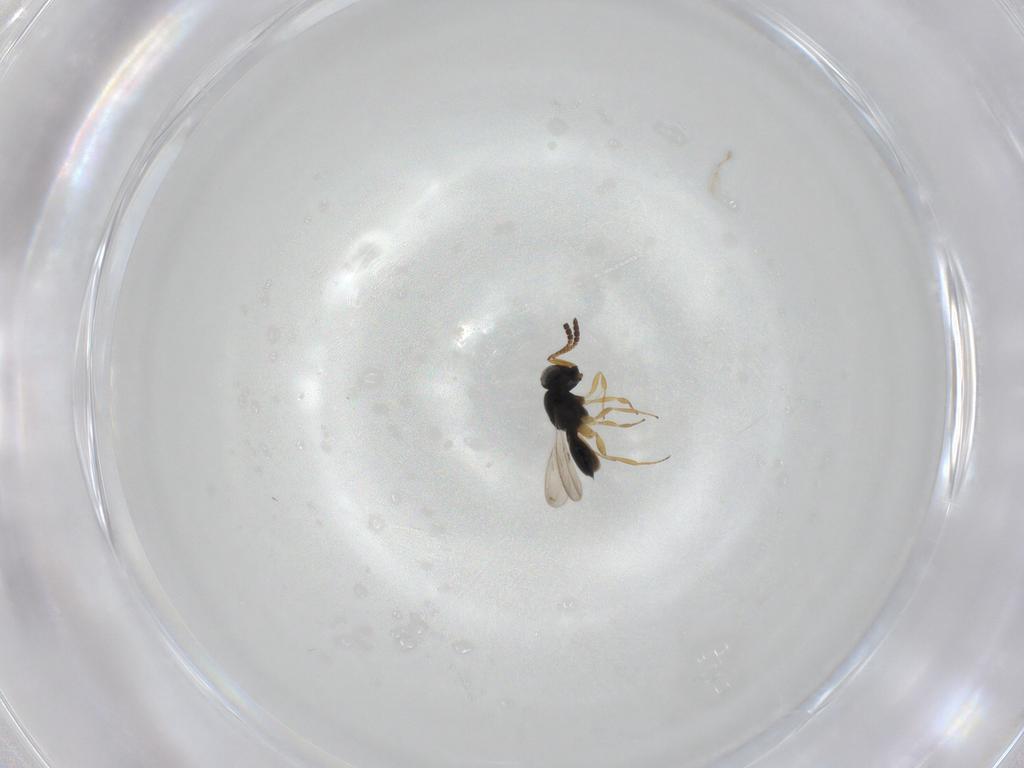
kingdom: Animalia
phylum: Arthropoda
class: Insecta
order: Hymenoptera
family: Scelionidae
